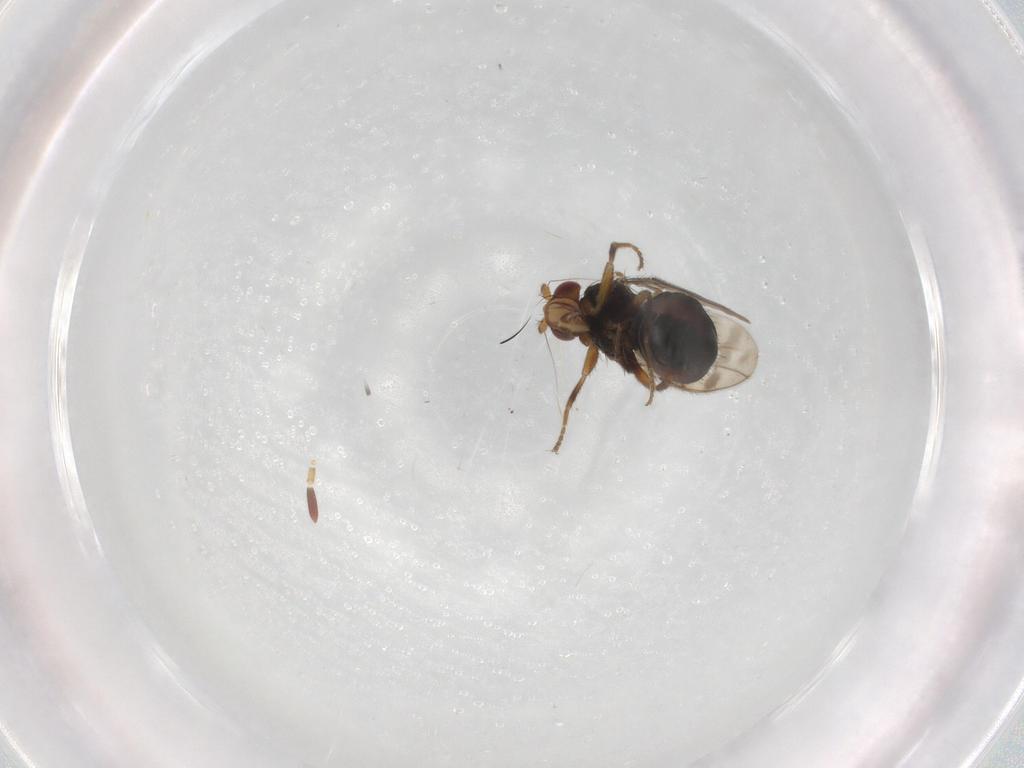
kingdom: Animalia
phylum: Arthropoda
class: Insecta
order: Diptera
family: Sphaeroceridae
